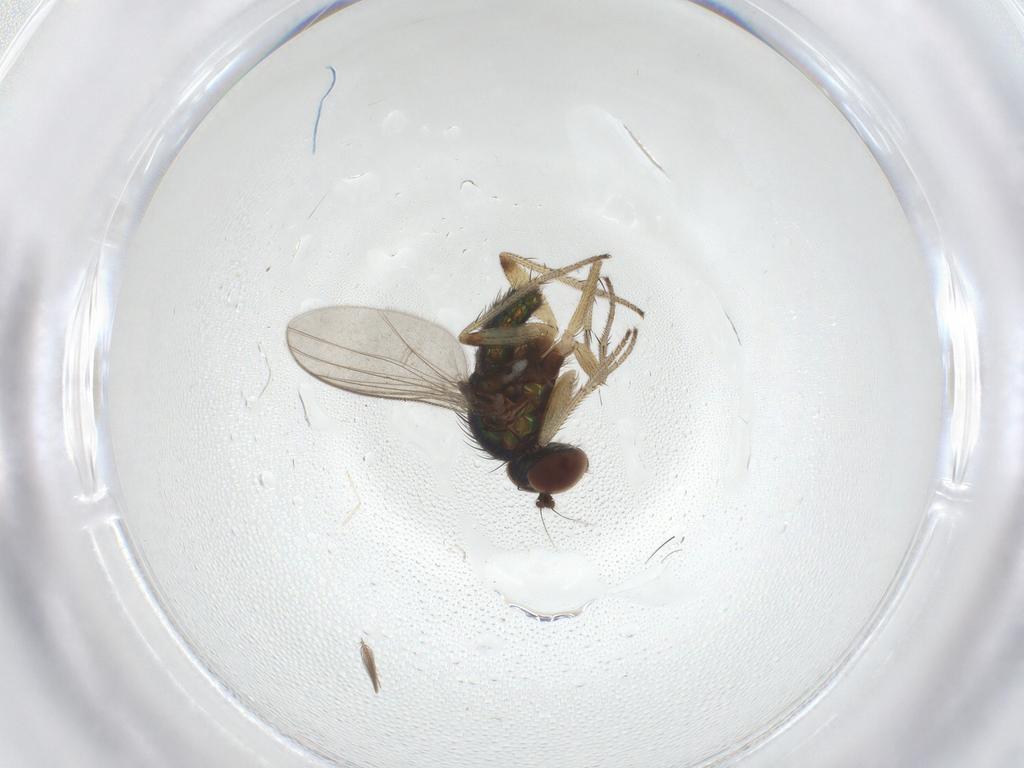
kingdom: Animalia
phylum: Arthropoda
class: Insecta
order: Diptera
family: Dolichopodidae
